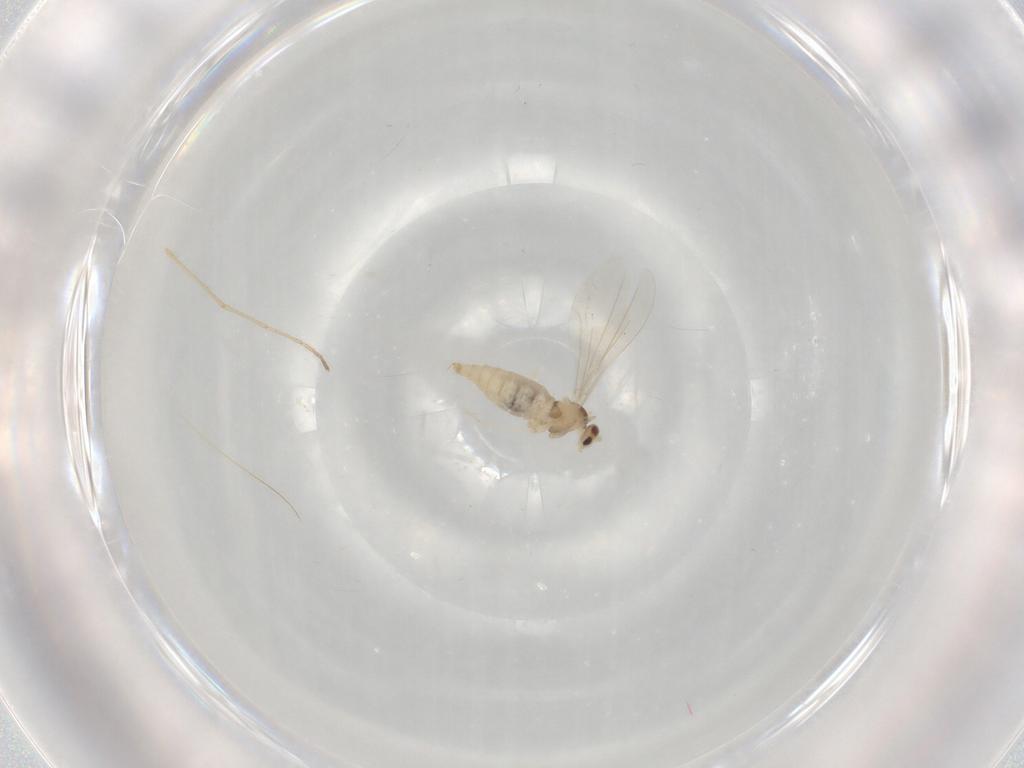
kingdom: Animalia
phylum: Arthropoda
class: Insecta
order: Diptera
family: Cecidomyiidae
